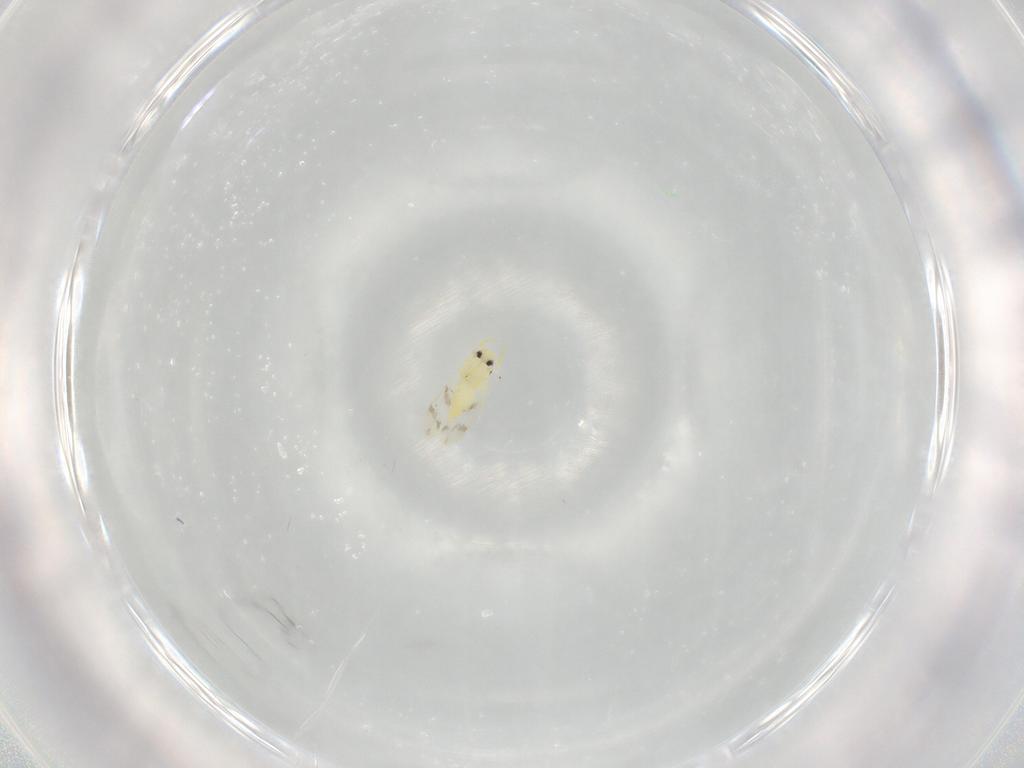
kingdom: Animalia
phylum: Arthropoda
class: Insecta
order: Hemiptera
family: Aleyrodidae
